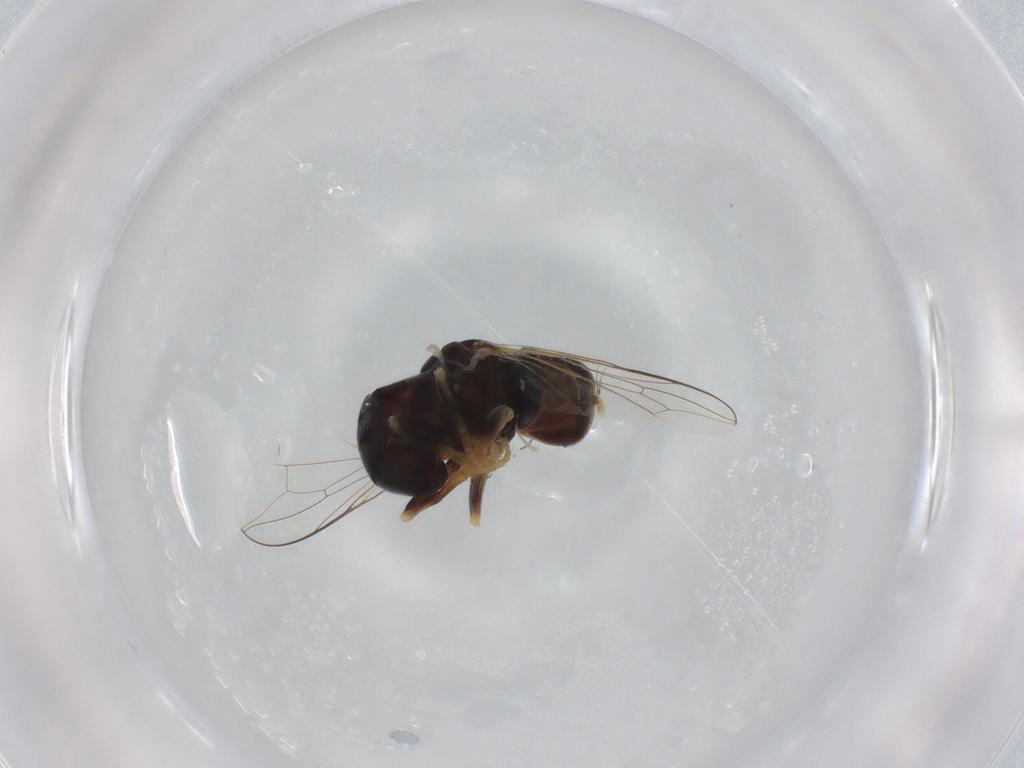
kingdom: Animalia
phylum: Arthropoda
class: Insecta
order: Diptera
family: Pipunculidae
